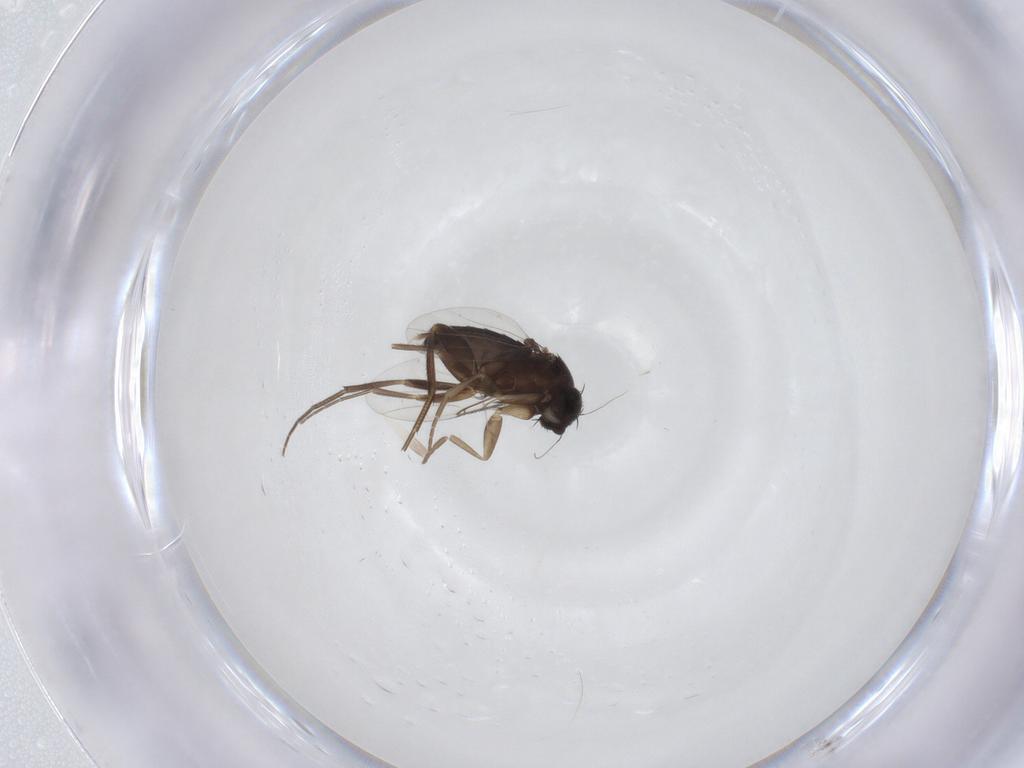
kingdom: Animalia
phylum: Arthropoda
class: Insecta
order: Diptera
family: Phoridae
